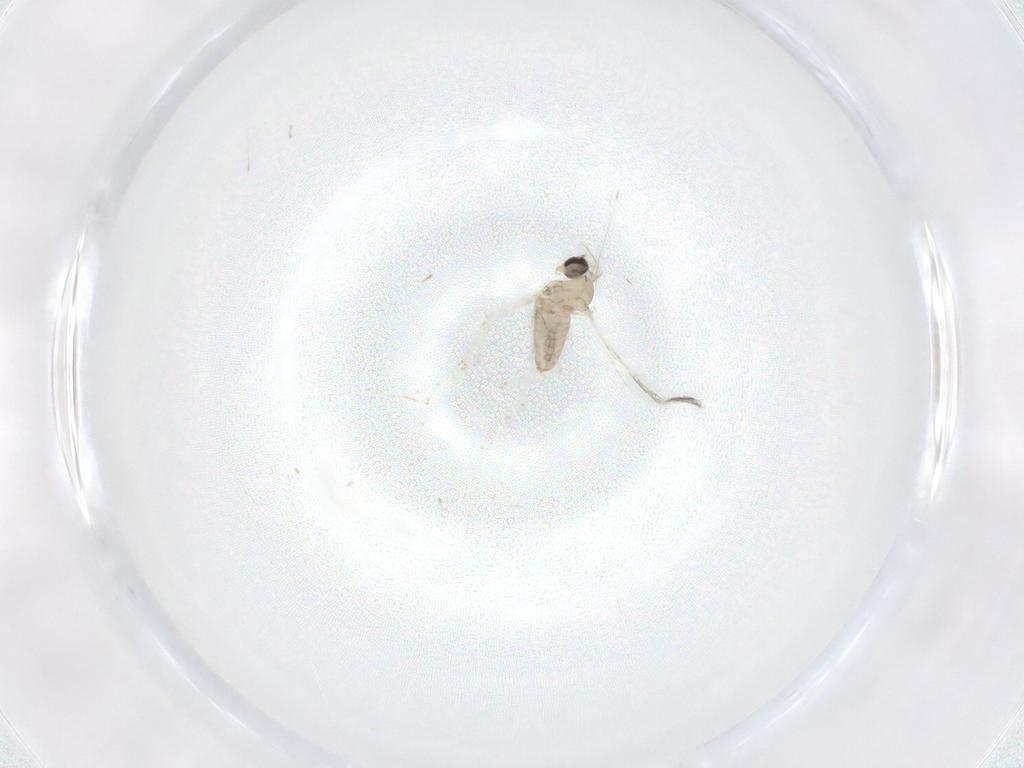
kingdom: Animalia
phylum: Arthropoda
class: Insecta
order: Diptera
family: Cecidomyiidae
